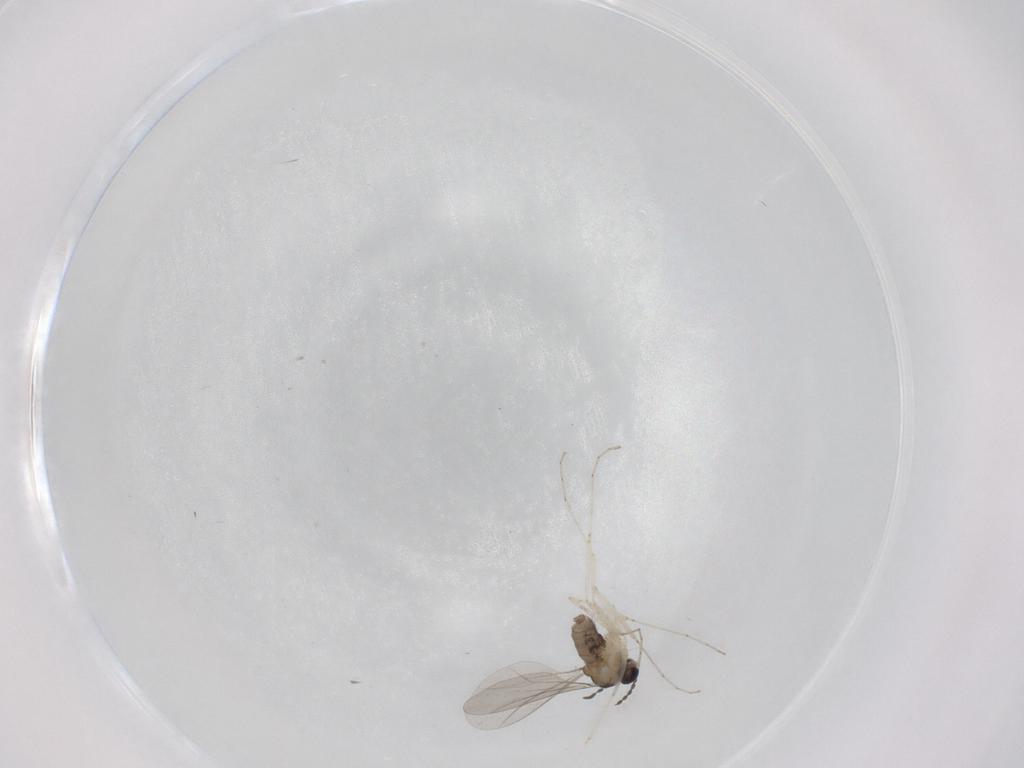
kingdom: Animalia
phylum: Arthropoda
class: Insecta
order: Diptera
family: Cecidomyiidae
